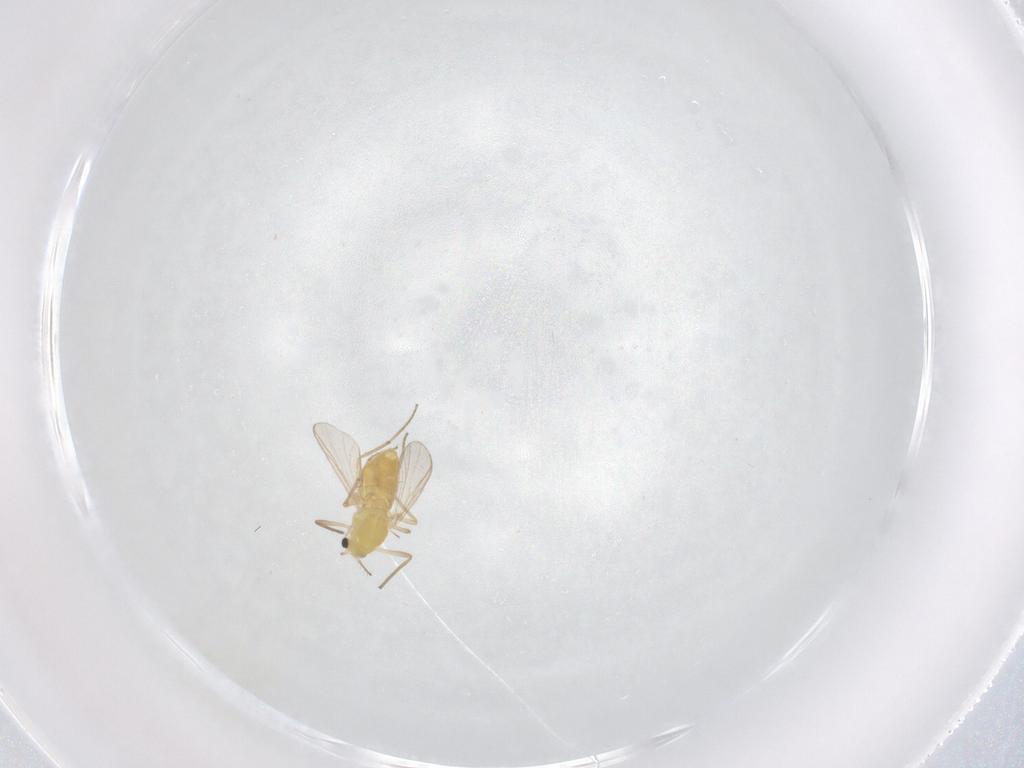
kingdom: Animalia
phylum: Arthropoda
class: Insecta
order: Diptera
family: Chironomidae
